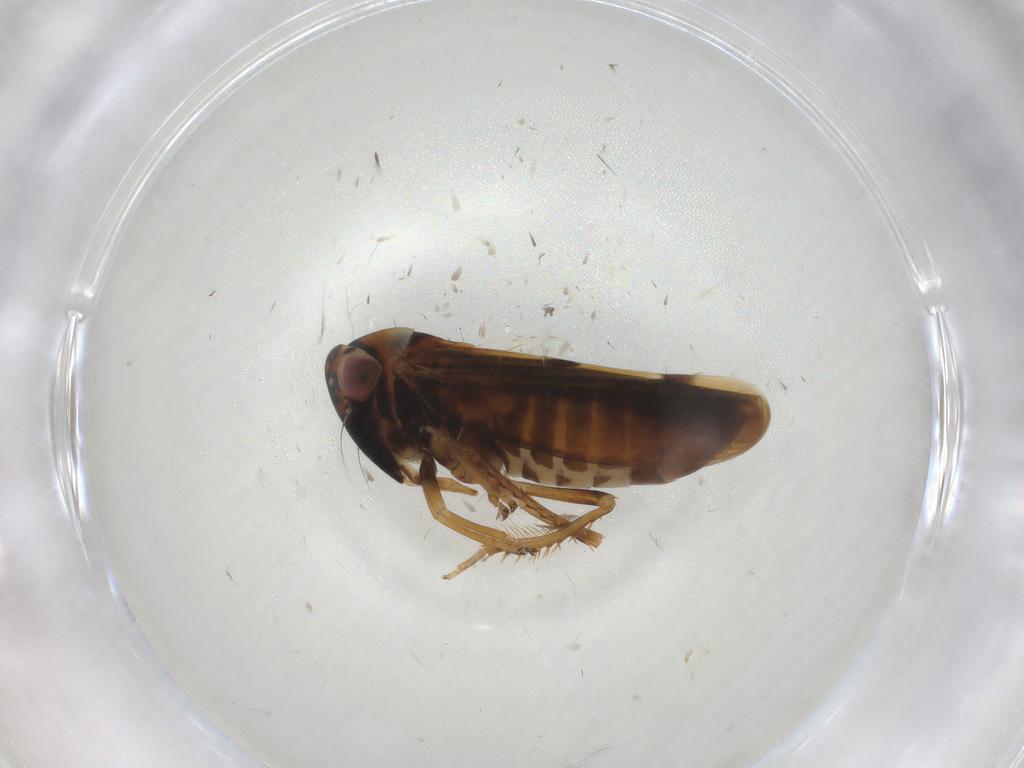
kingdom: Animalia
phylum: Arthropoda
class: Insecta
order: Hemiptera
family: Cicadellidae
